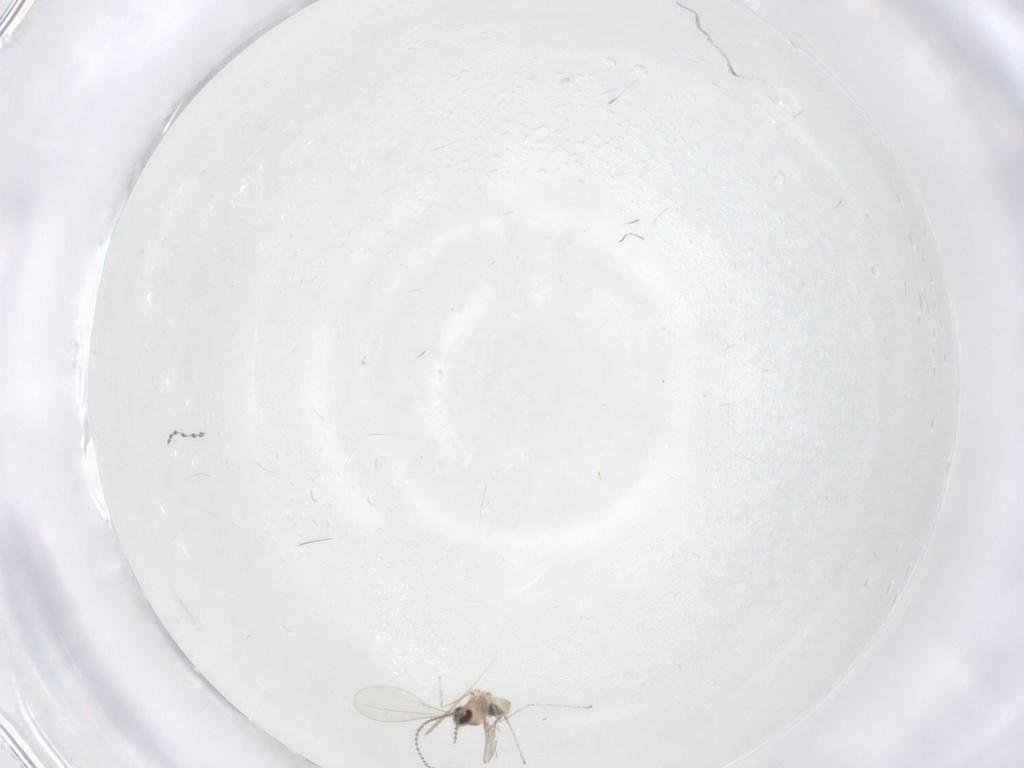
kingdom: Animalia
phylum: Arthropoda
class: Insecta
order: Diptera
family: Cecidomyiidae
